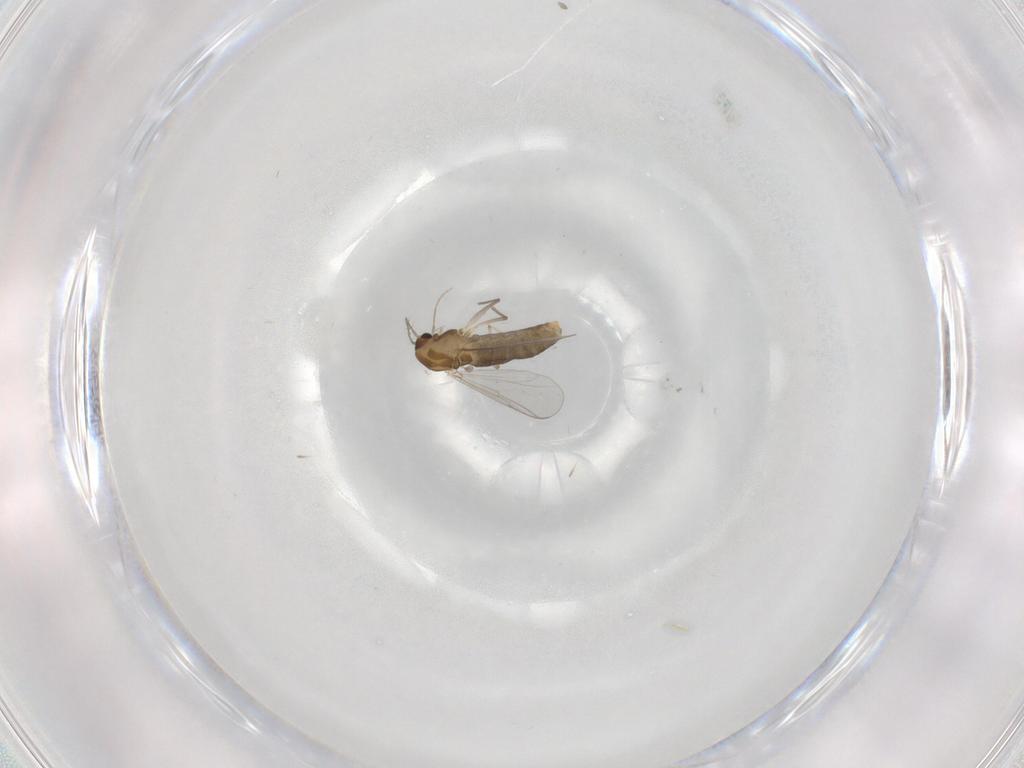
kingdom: Animalia
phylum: Arthropoda
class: Insecta
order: Diptera
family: Chironomidae
